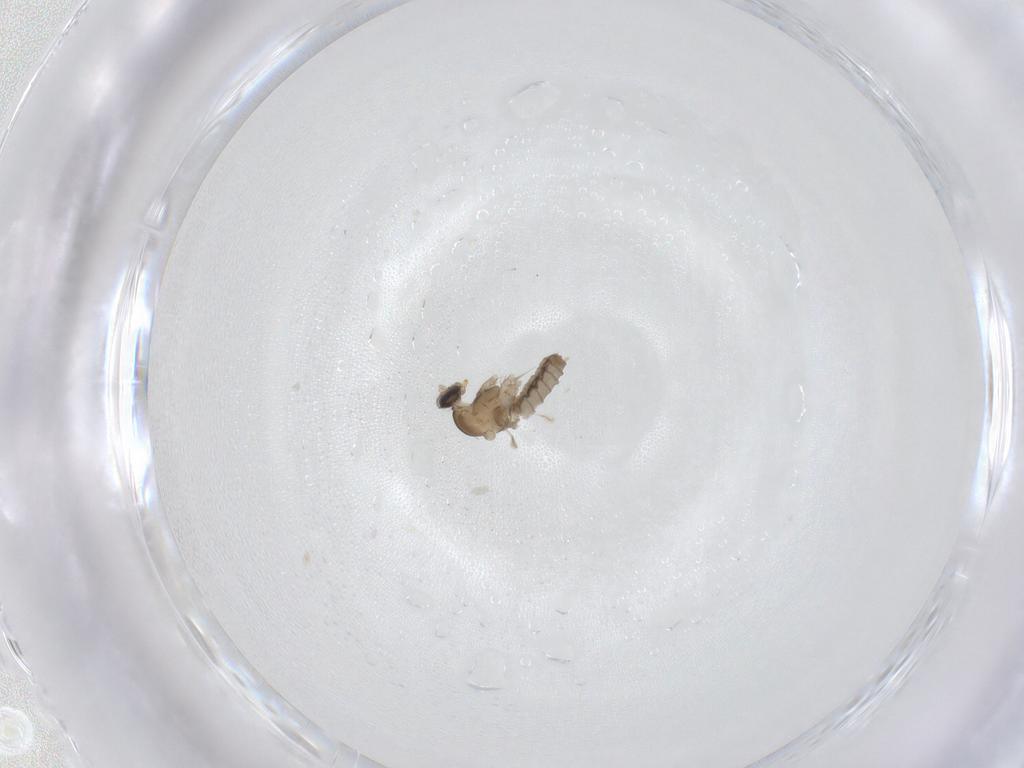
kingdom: Animalia
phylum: Arthropoda
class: Insecta
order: Diptera
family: Cecidomyiidae
